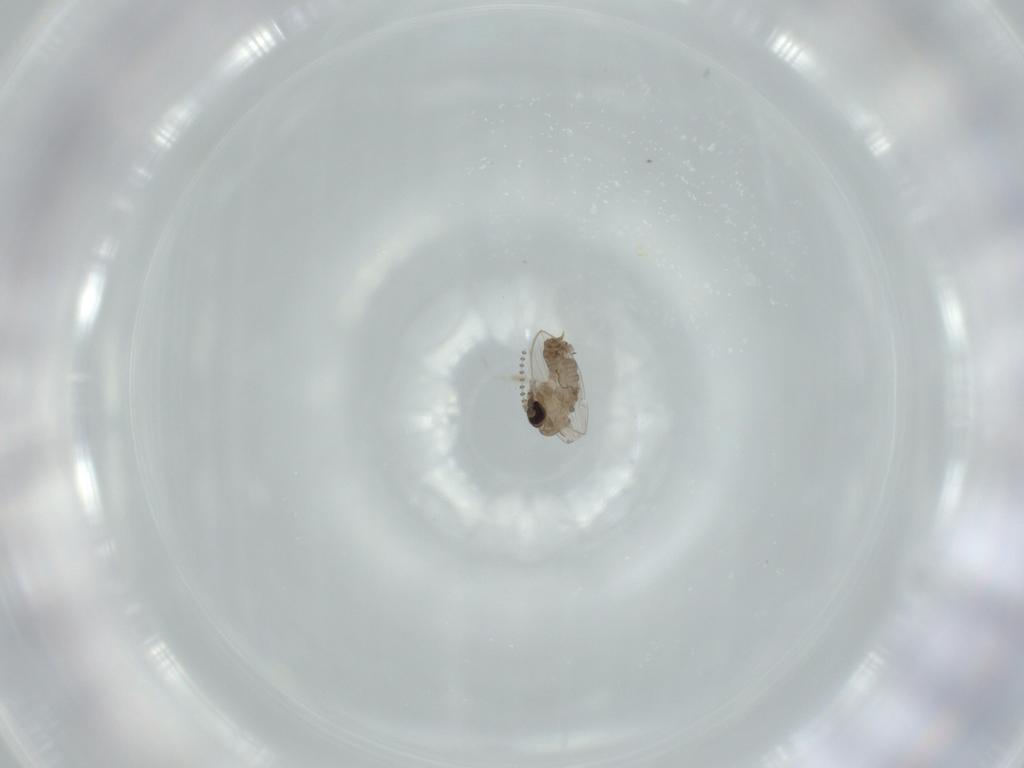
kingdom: Animalia
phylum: Arthropoda
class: Insecta
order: Diptera
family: Psychodidae
